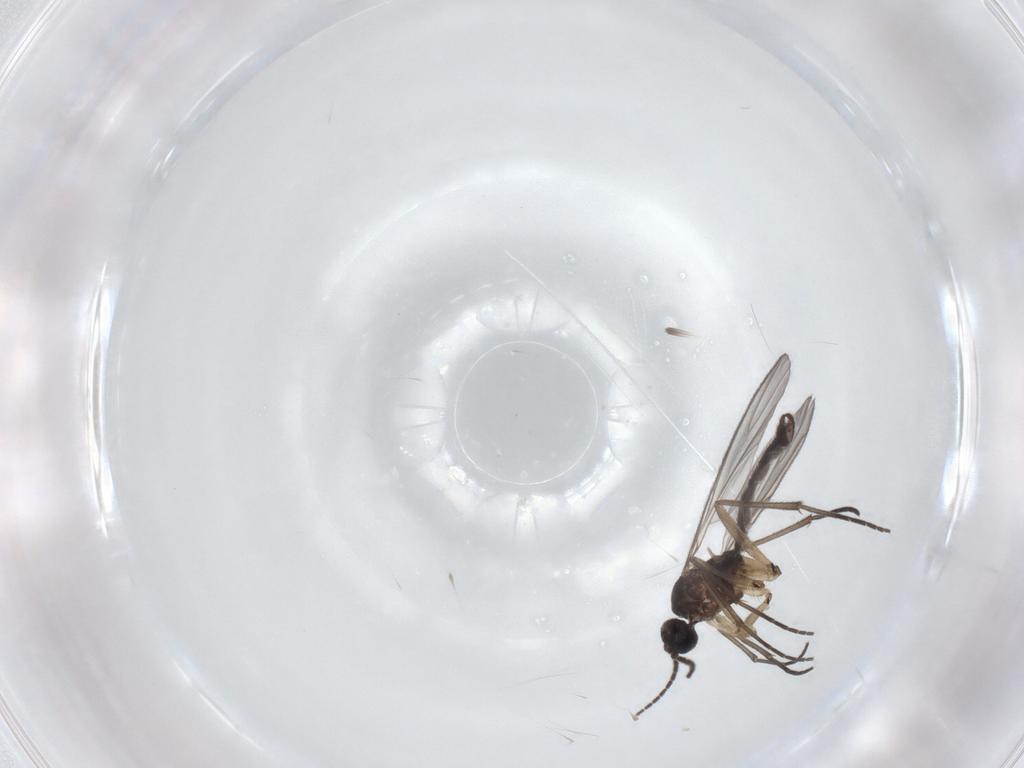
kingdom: Animalia
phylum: Arthropoda
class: Insecta
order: Diptera
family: Sciaridae
